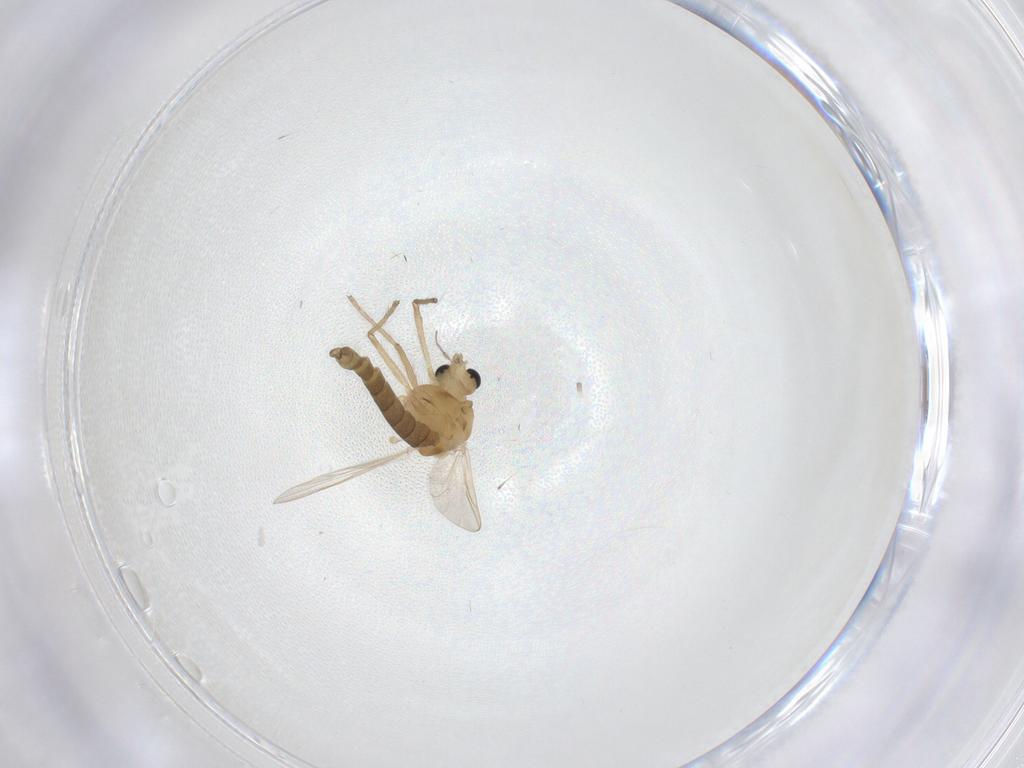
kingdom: Animalia
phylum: Arthropoda
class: Insecta
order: Diptera
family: Chironomidae
